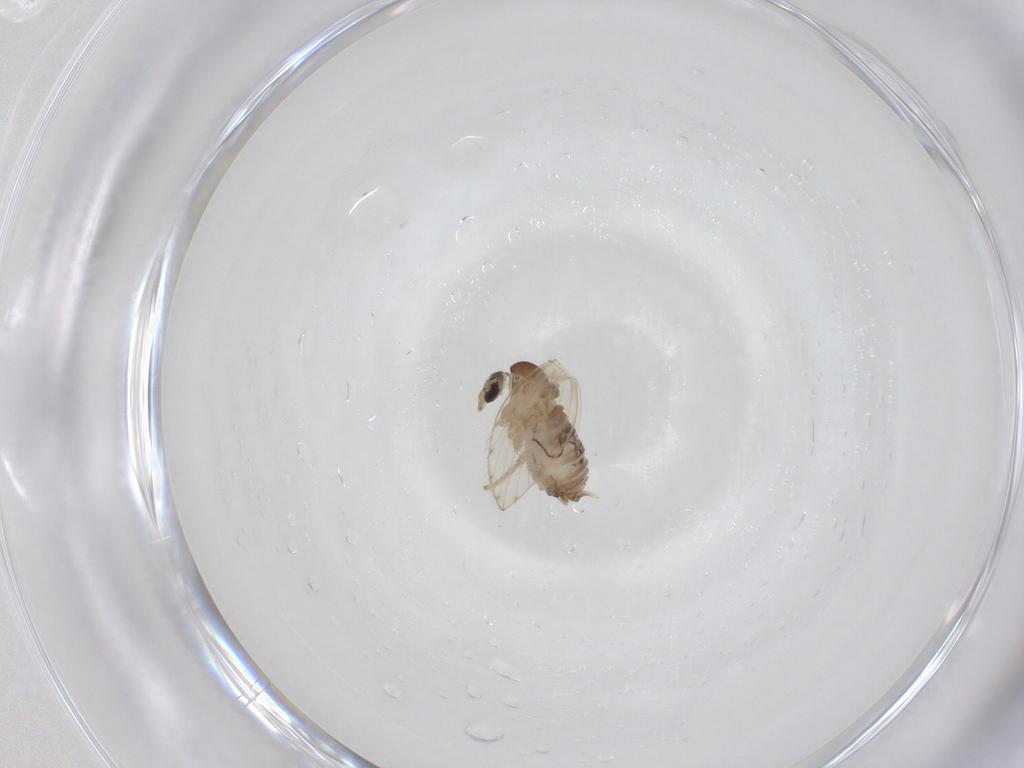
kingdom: Animalia
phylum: Arthropoda
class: Insecta
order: Diptera
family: Psychodidae
